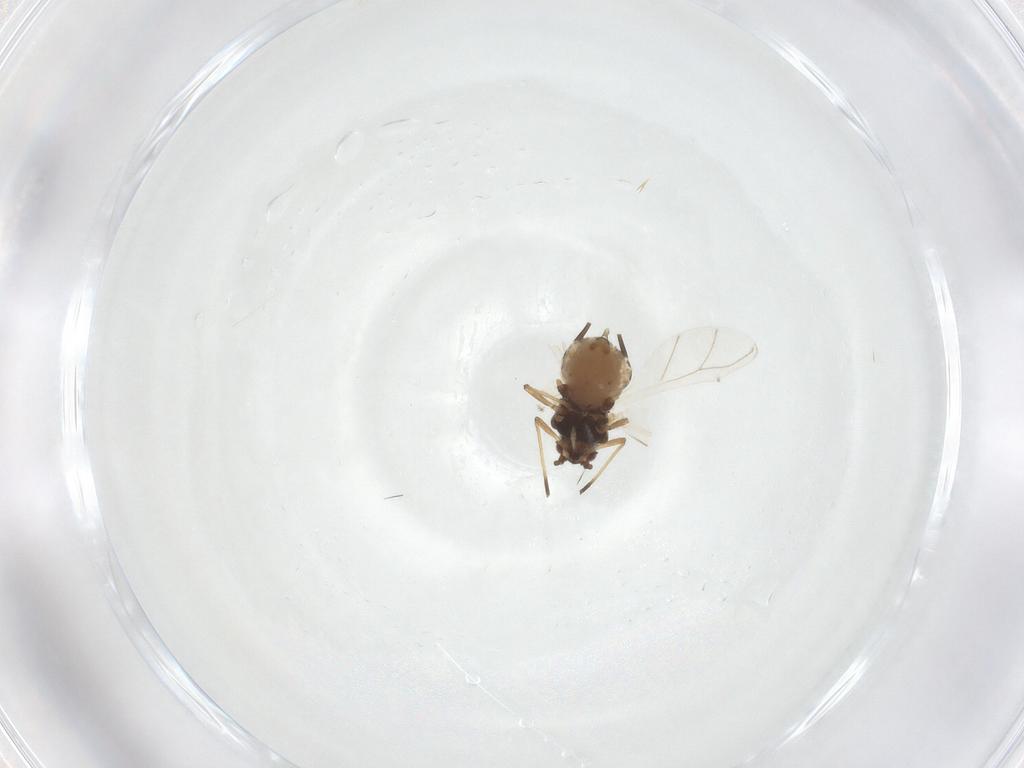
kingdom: Animalia
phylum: Arthropoda
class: Insecta
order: Hemiptera
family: Aphididae
